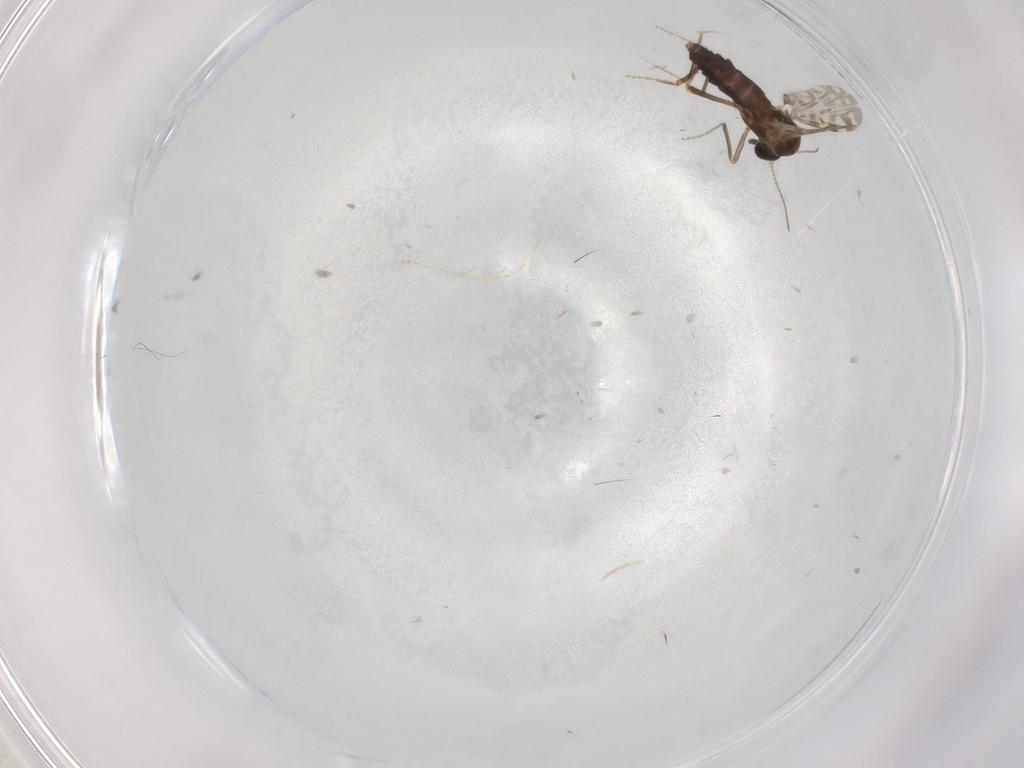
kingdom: Animalia
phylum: Arthropoda
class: Insecta
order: Diptera
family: Ceratopogonidae
